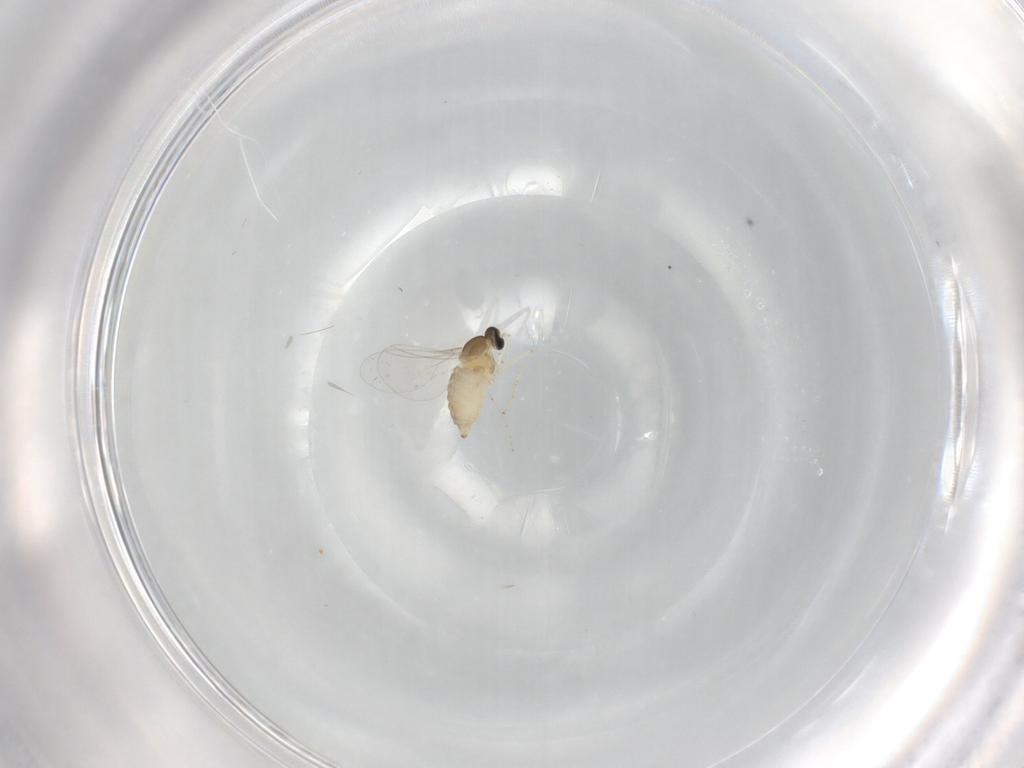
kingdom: Animalia
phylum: Arthropoda
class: Insecta
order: Diptera
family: Cecidomyiidae
